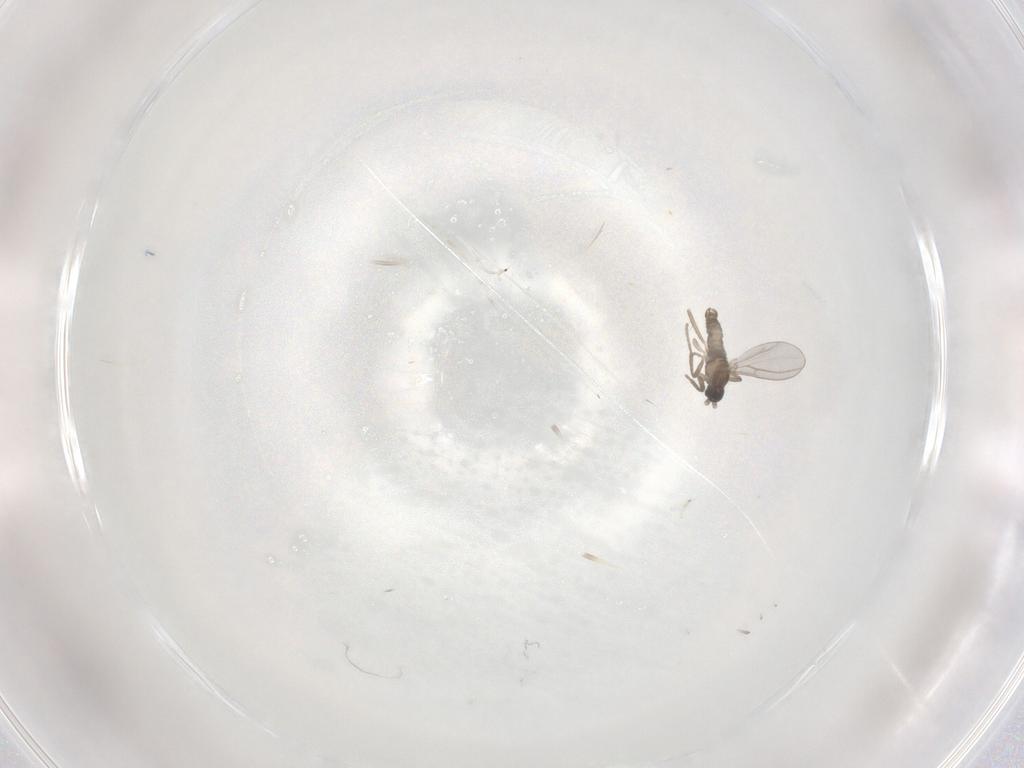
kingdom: Animalia
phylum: Arthropoda
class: Insecta
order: Diptera
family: Cecidomyiidae
